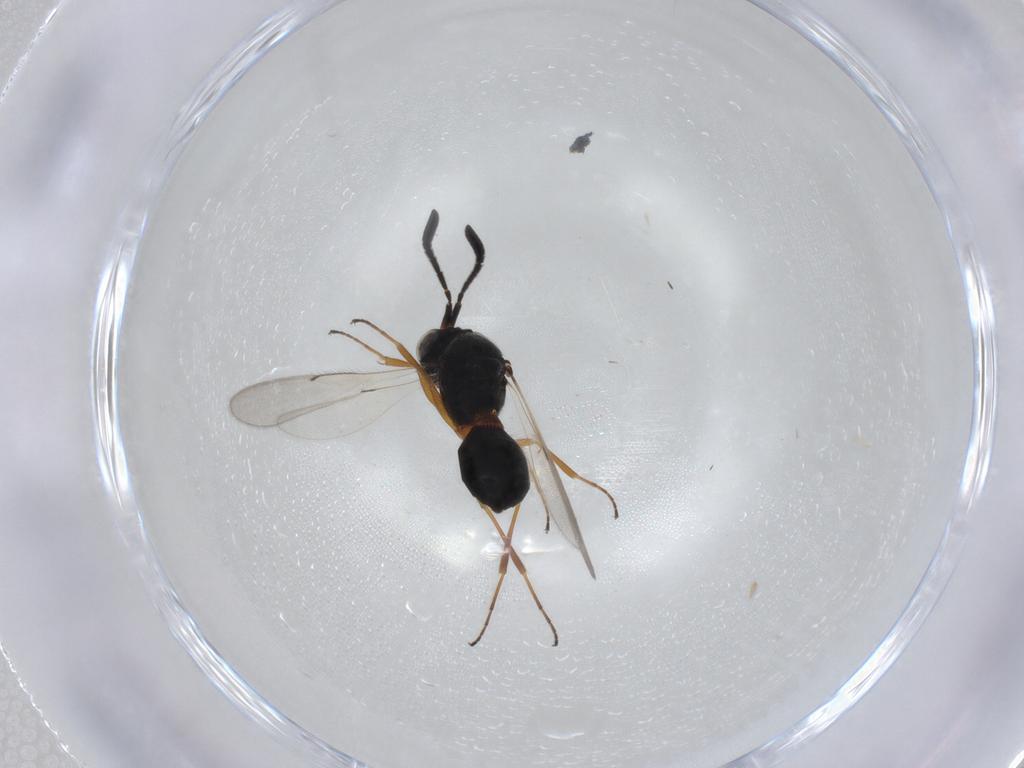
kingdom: Animalia
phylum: Arthropoda
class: Insecta
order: Hymenoptera
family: Scelionidae
